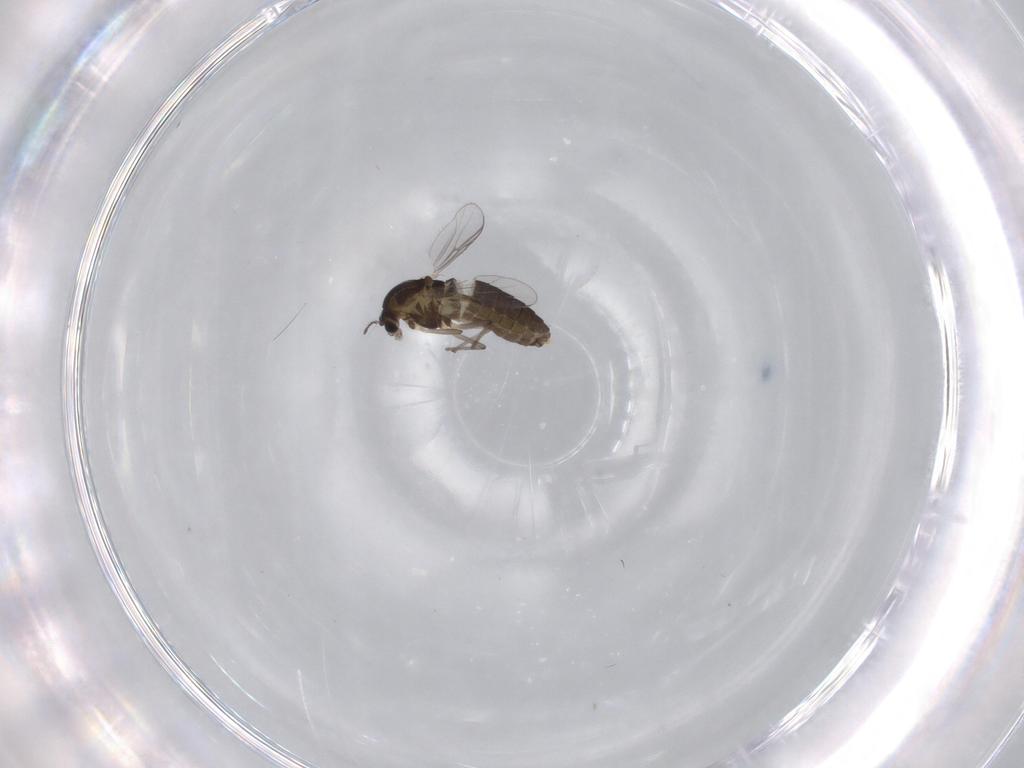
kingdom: Animalia
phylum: Arthropoda
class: Insecta
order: Diptera
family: Chironomidae
